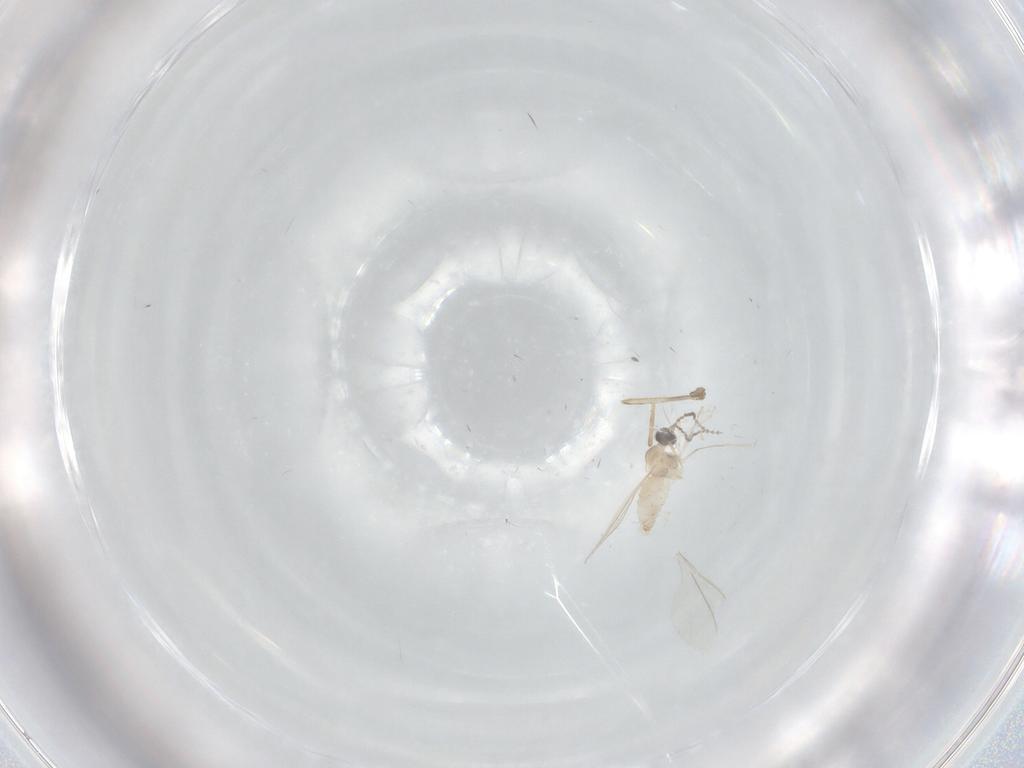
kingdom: Animalia
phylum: Arthropoda
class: Insecta
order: Diptera
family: Cecidomyiidae
